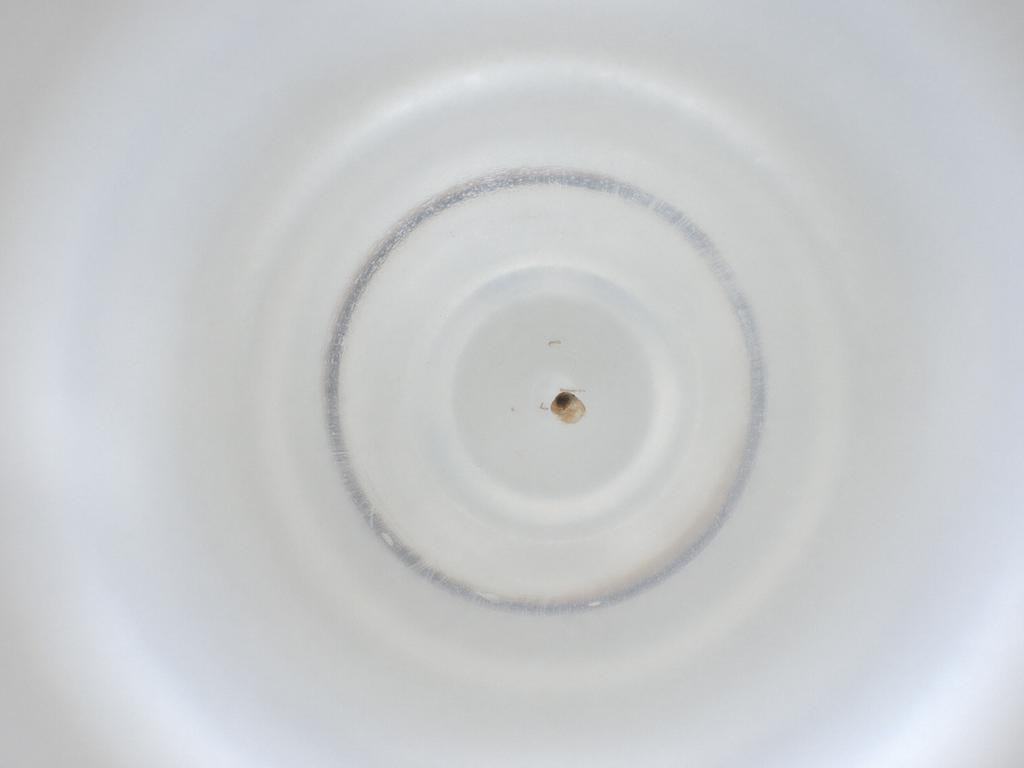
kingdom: Animalia
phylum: Arthropoda
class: Insecta
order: Diptera
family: Cecidomyiidae
